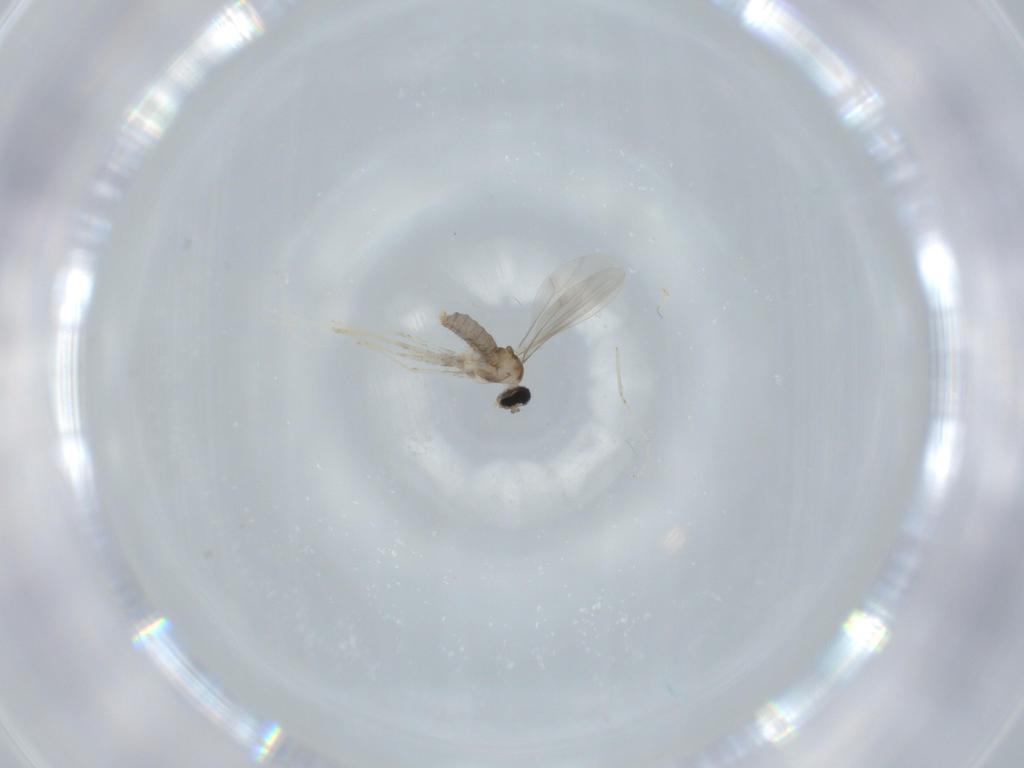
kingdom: Animalia
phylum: Arthropoda
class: Insecta
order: Diptera
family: Cecidomyiidae
